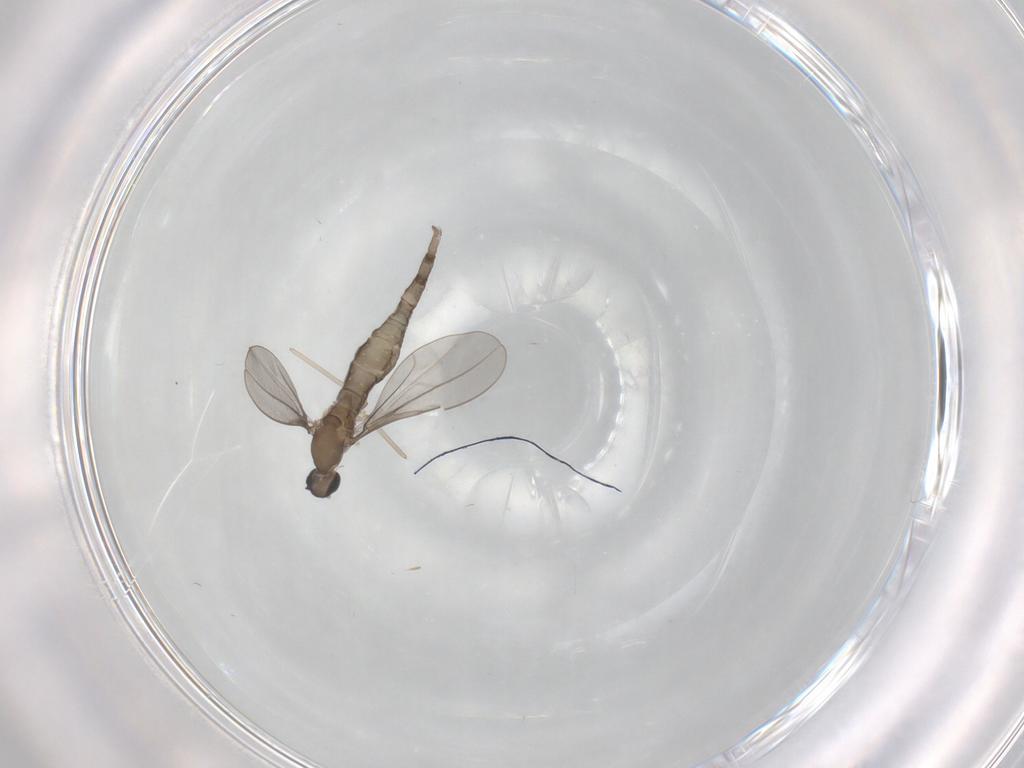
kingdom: Animalia
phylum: Arthropoda
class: Insecta
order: Diptera
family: Cecidomyiidae
